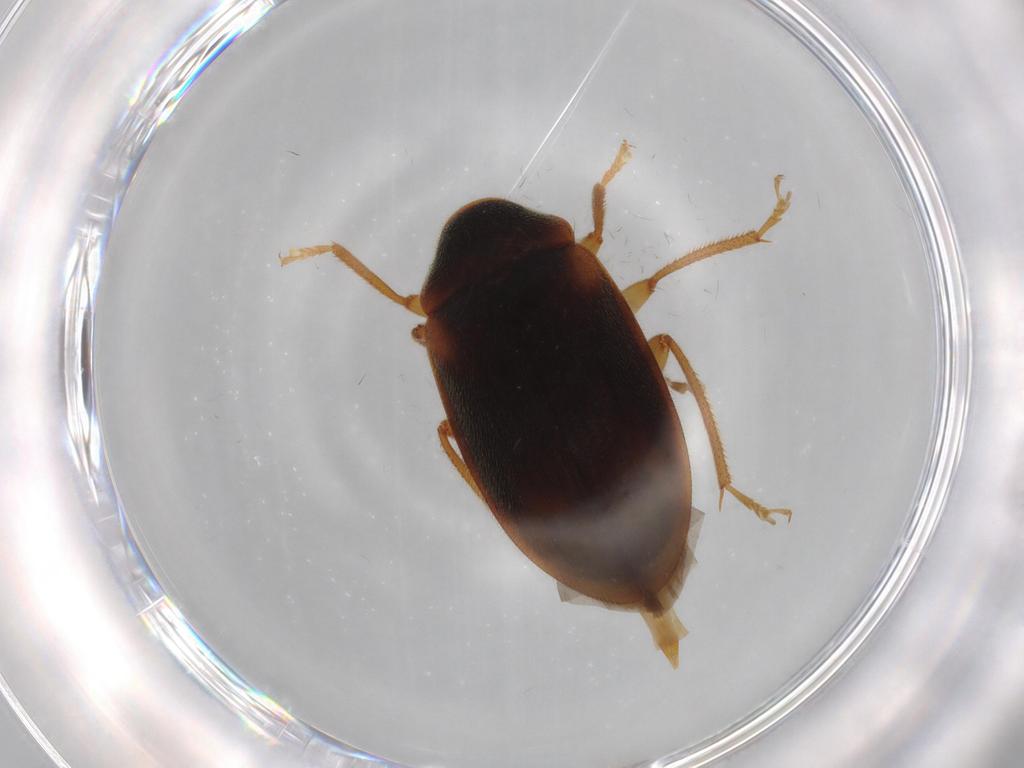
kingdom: Animalia
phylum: Arthropoda
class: Insecta
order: Coleoptera
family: Ptilodactylidae
